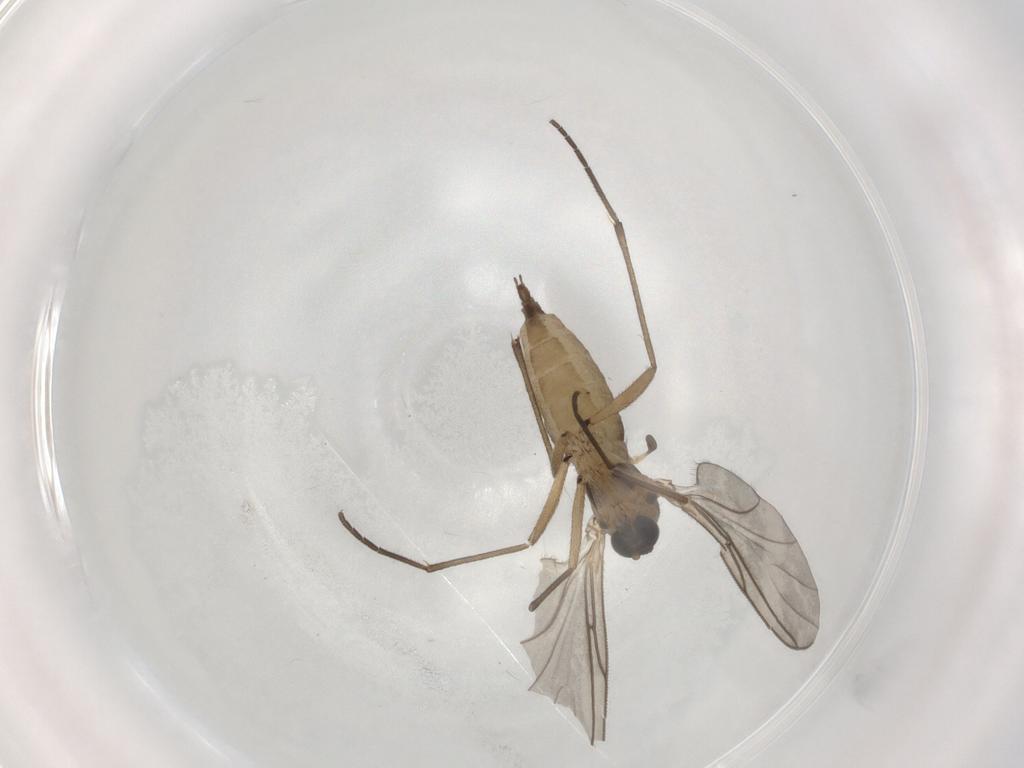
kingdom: Animalia
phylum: Arthropoda
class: Insecta
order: Diptera
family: Sciaridae
